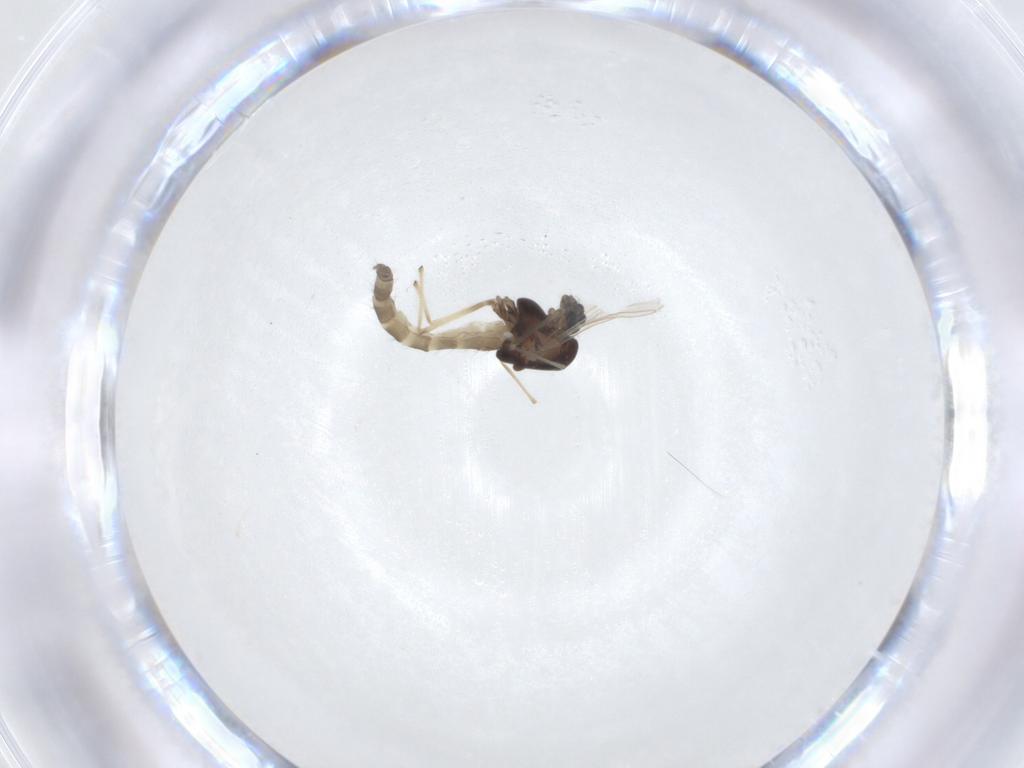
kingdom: Animalia
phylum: Arthropoda
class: Insecta
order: Diptera
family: Chironomidae
